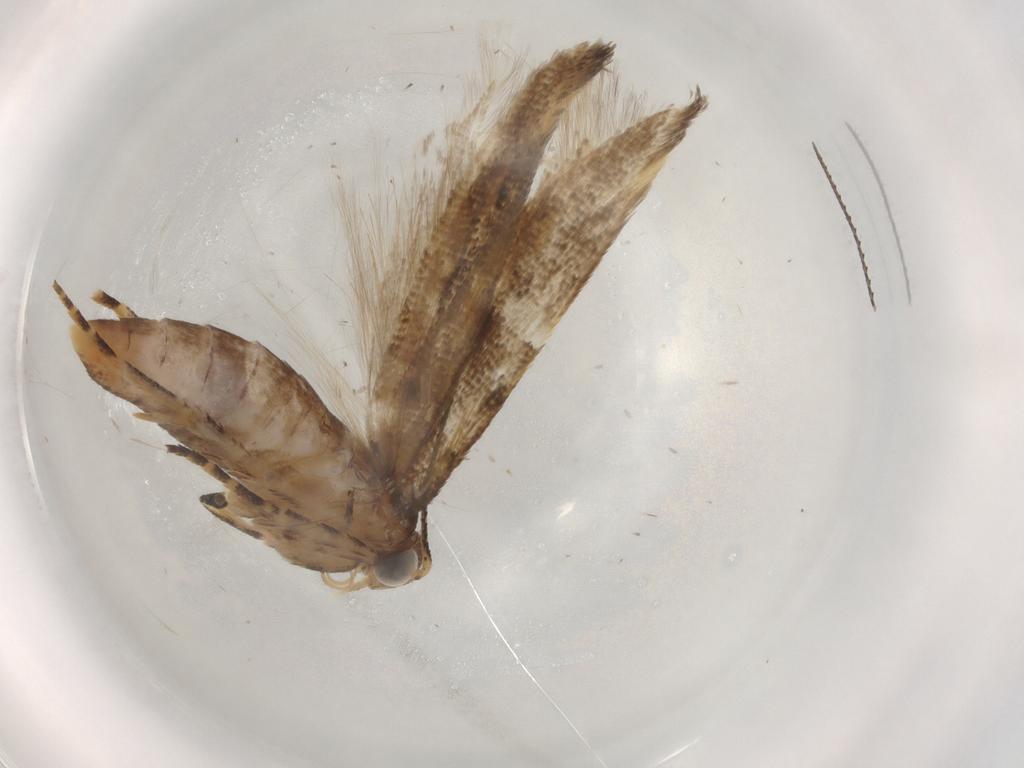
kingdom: Animalia
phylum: Arthropoda
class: Insecta
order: Lepidoptera
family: Gelechiidae
